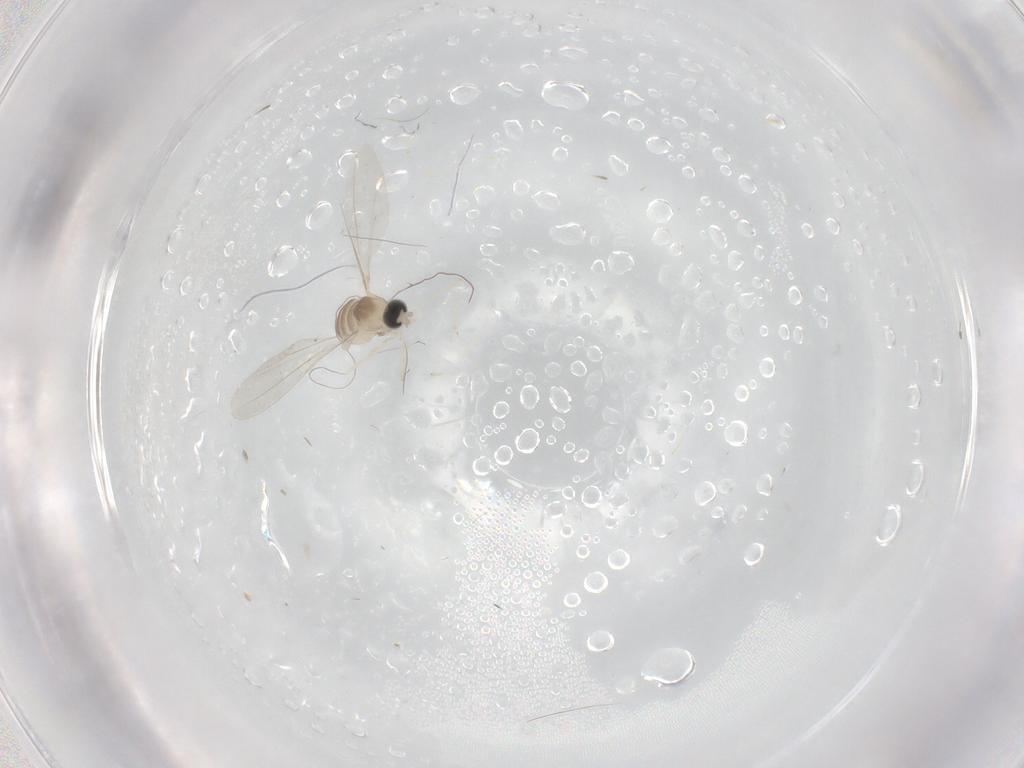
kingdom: Animalia
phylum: Arthropoda
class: Insecta
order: Diptera
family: Cecidomyiidae
